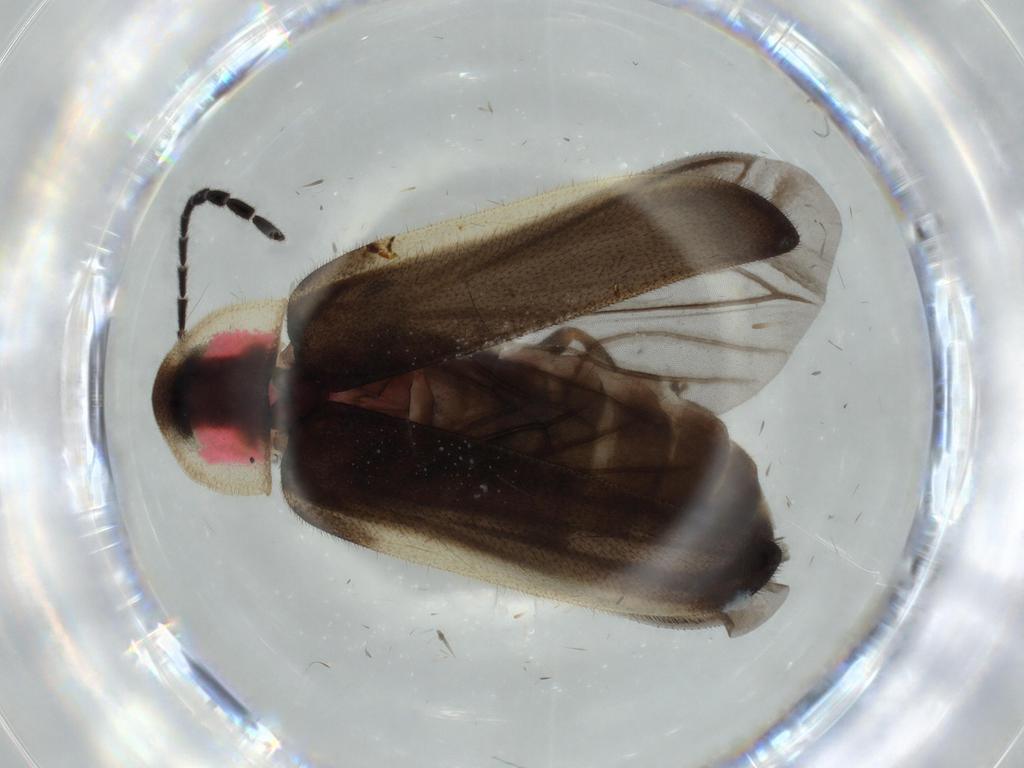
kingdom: Animalia
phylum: Arthropoda
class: Insecta
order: Coleoptera
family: Lampyridae
